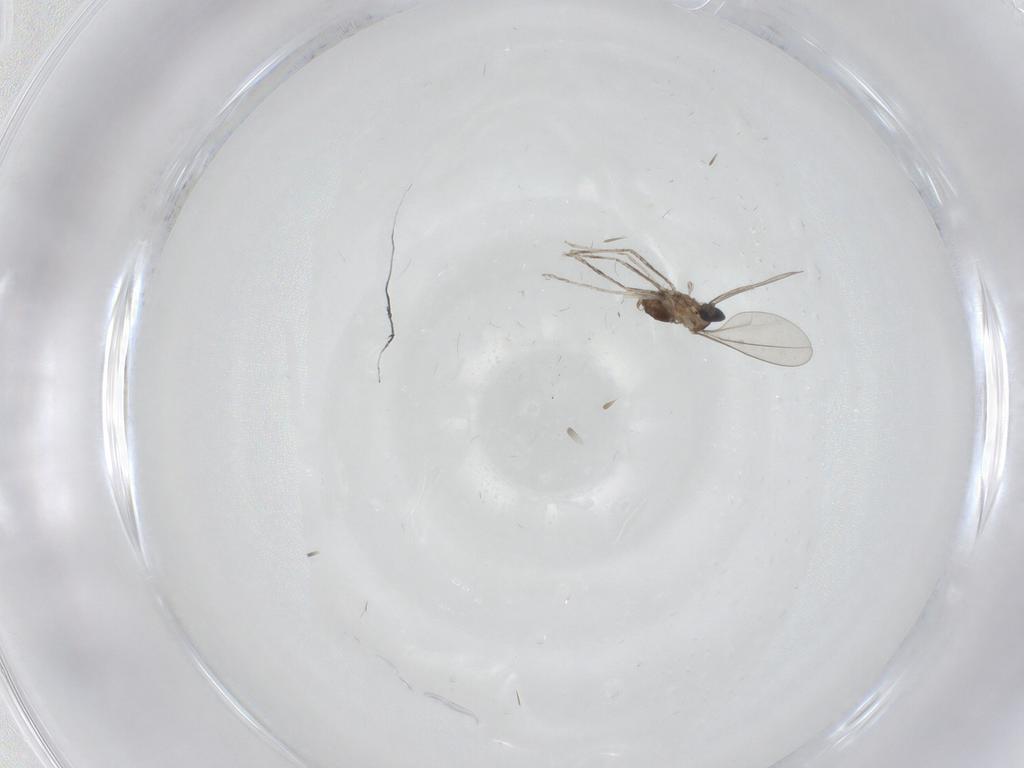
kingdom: Animalia
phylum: Arthropoda
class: Insecta
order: Diptera
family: Cecidomyiidae
